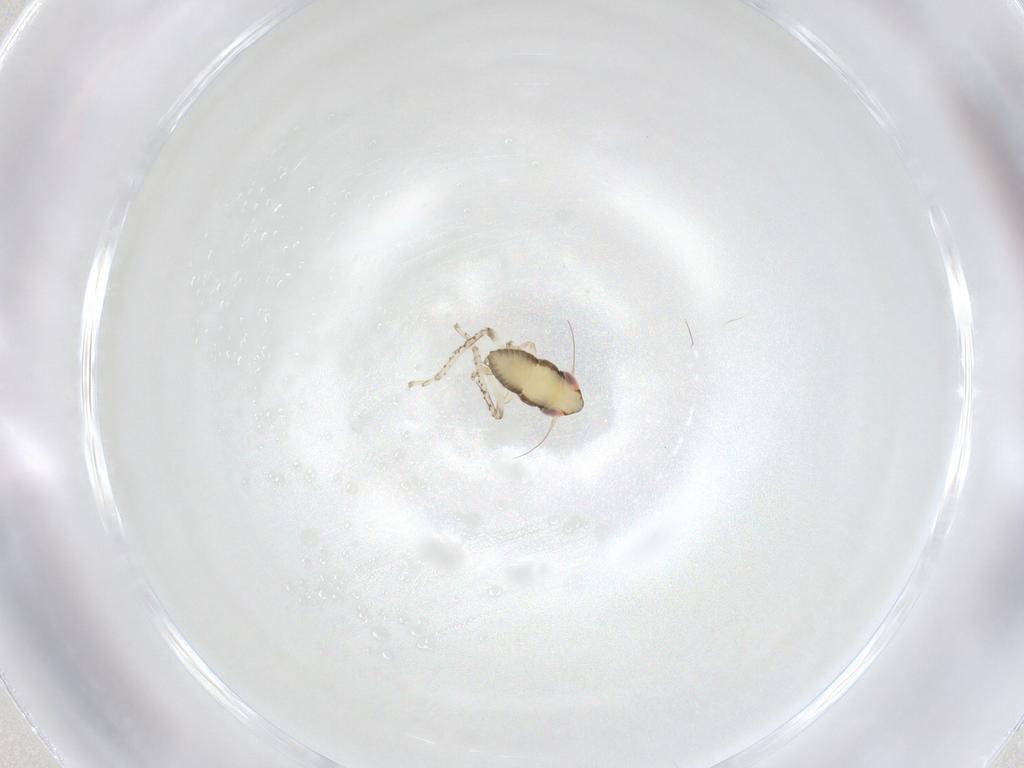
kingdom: Animalia
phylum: Arthropoda
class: Insecta
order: Hemiptera
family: Cicadellidae
